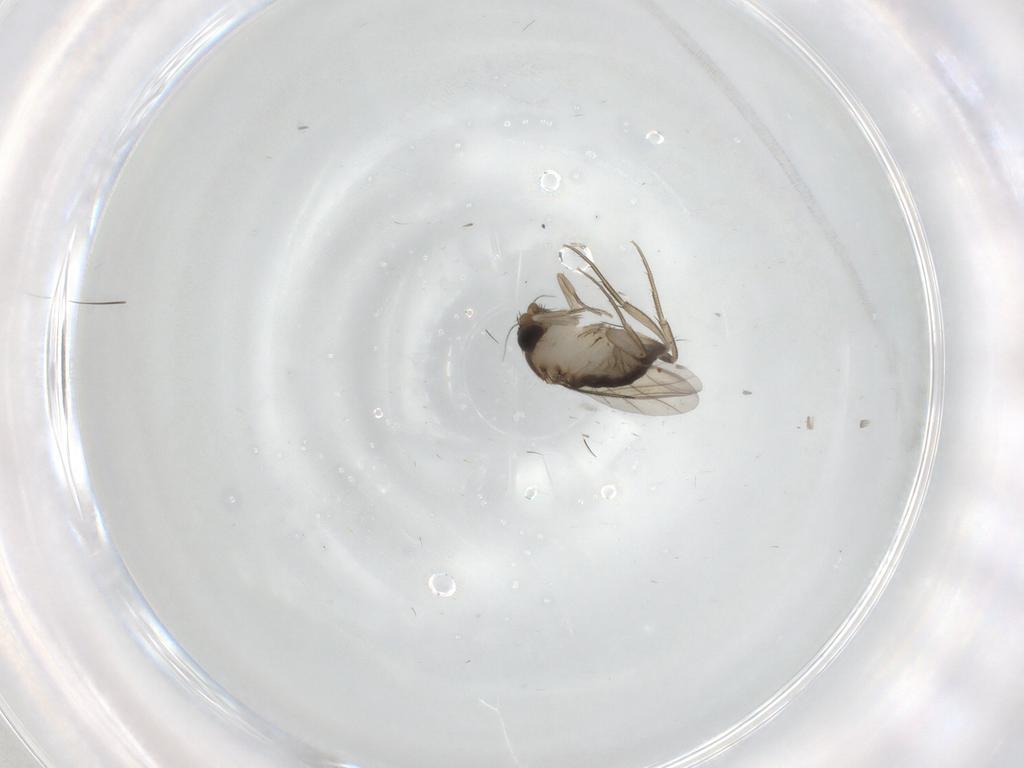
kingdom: Animalia
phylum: Arthropoda
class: Insecta
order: Diptera
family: Phoridae
